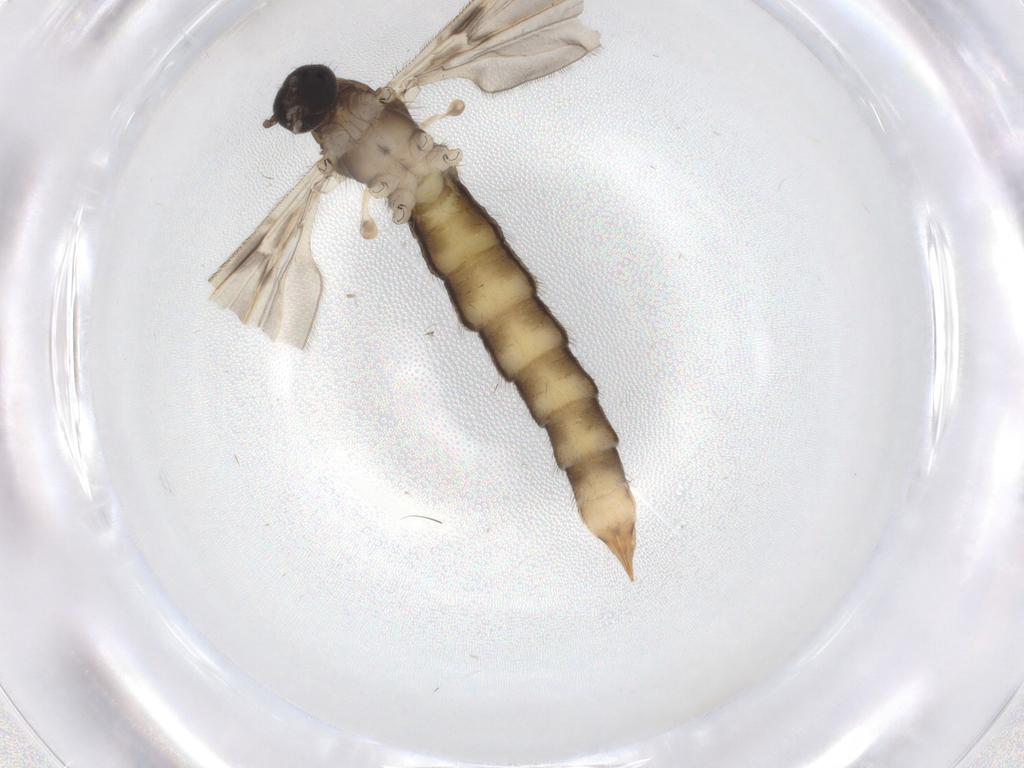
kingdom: Animalia
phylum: Arthropoda
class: Insecta
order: Diptera
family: Limoniidae
